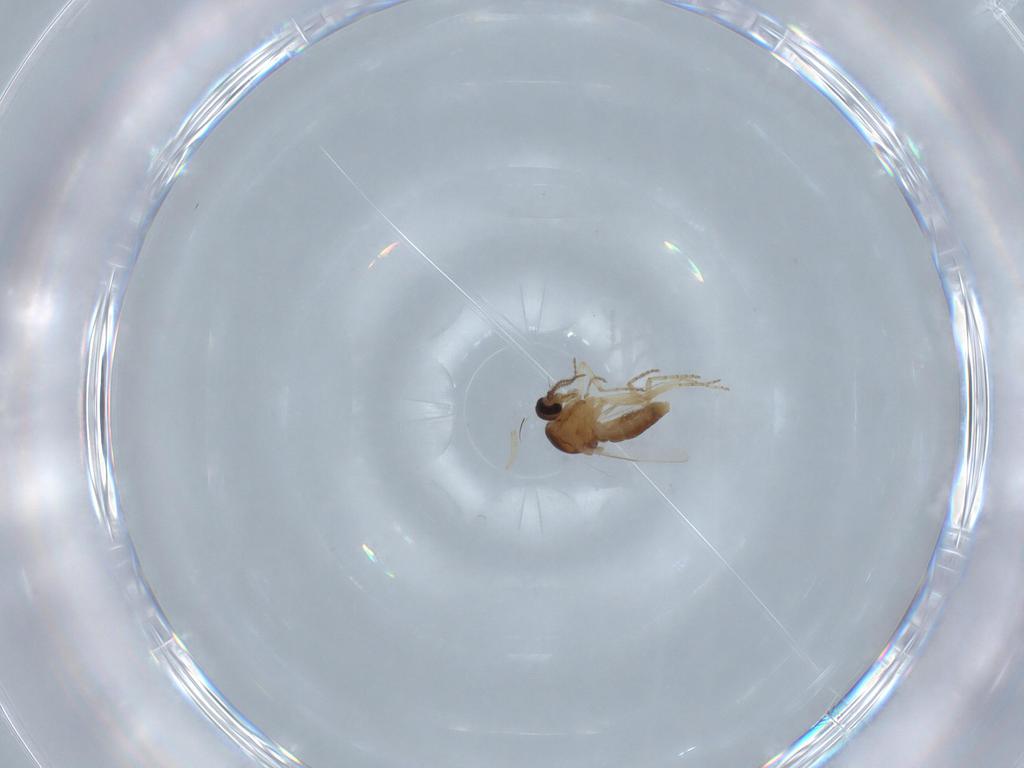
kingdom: Animalia
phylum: Arthropoda
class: Insecta
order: Diptera
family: Ceratopogonidae
